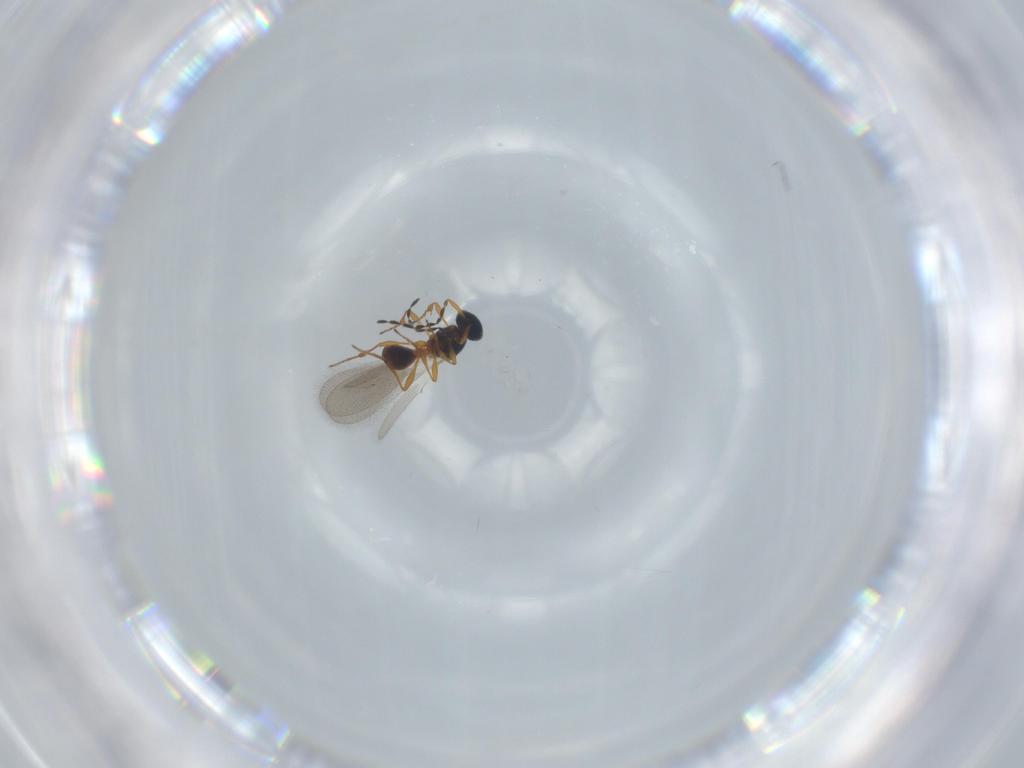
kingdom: Animalia
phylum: Arthropoda
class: Insecta
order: Hymenoptera
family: Platygastridae
